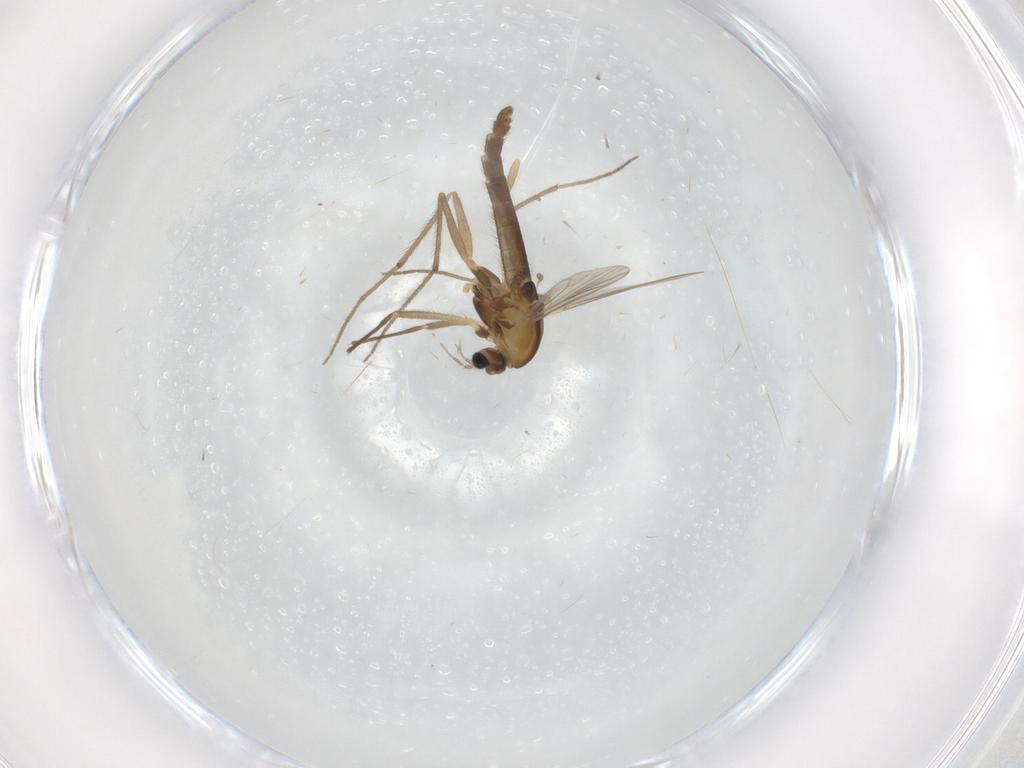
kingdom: Animalia
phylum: Arthropoda
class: Insecta
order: Diptera
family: Chironomidae
